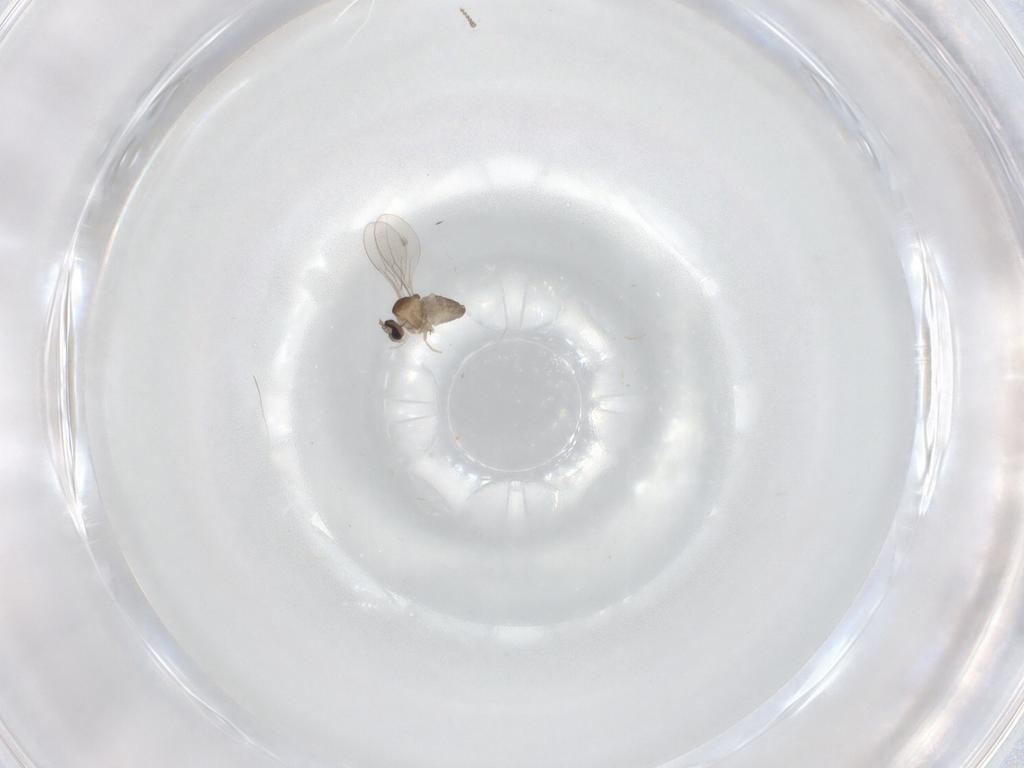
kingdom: Animalia
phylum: Arthropoda
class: Insecta
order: Diptera
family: Cecidomyiidae
